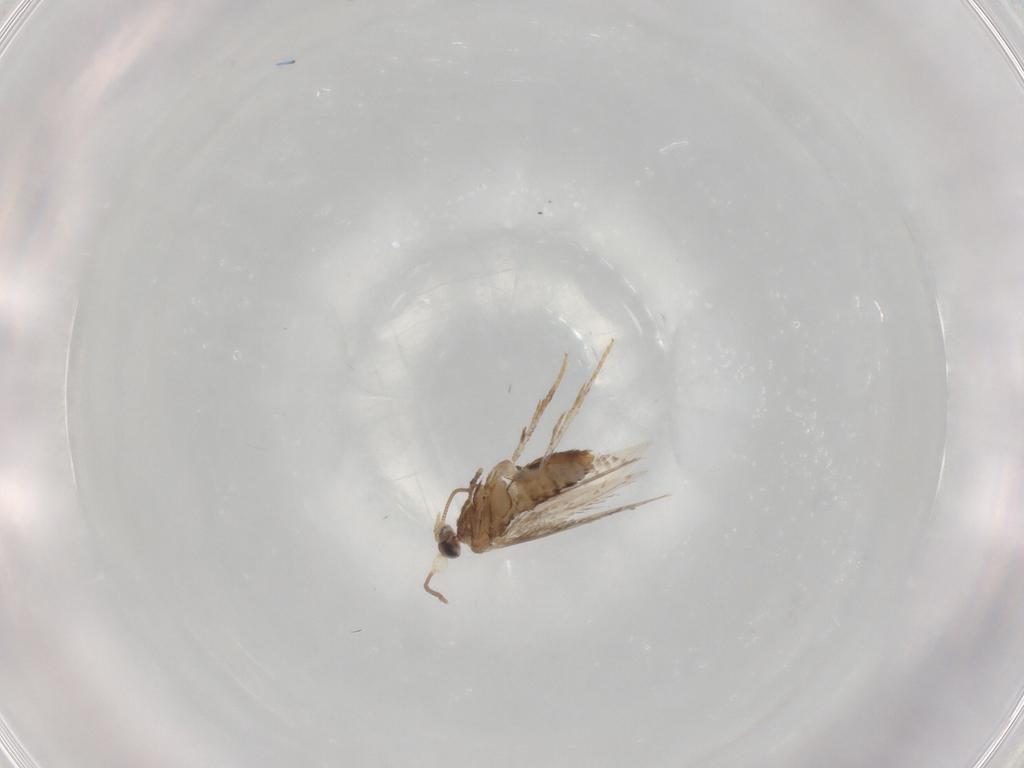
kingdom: Animalia
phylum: Arthropoda
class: Insecta
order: Lepidoptera
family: Nepticulidae
